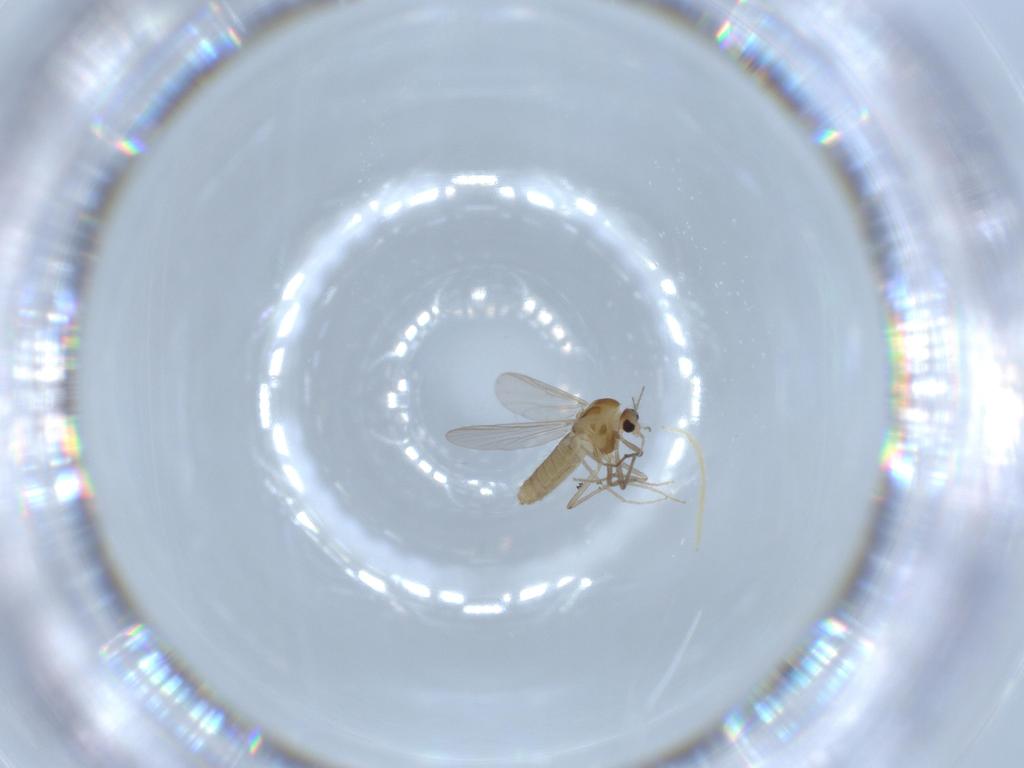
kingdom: Animalia
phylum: Arthropoda
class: Insecta
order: Diptera
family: Chironomidae
